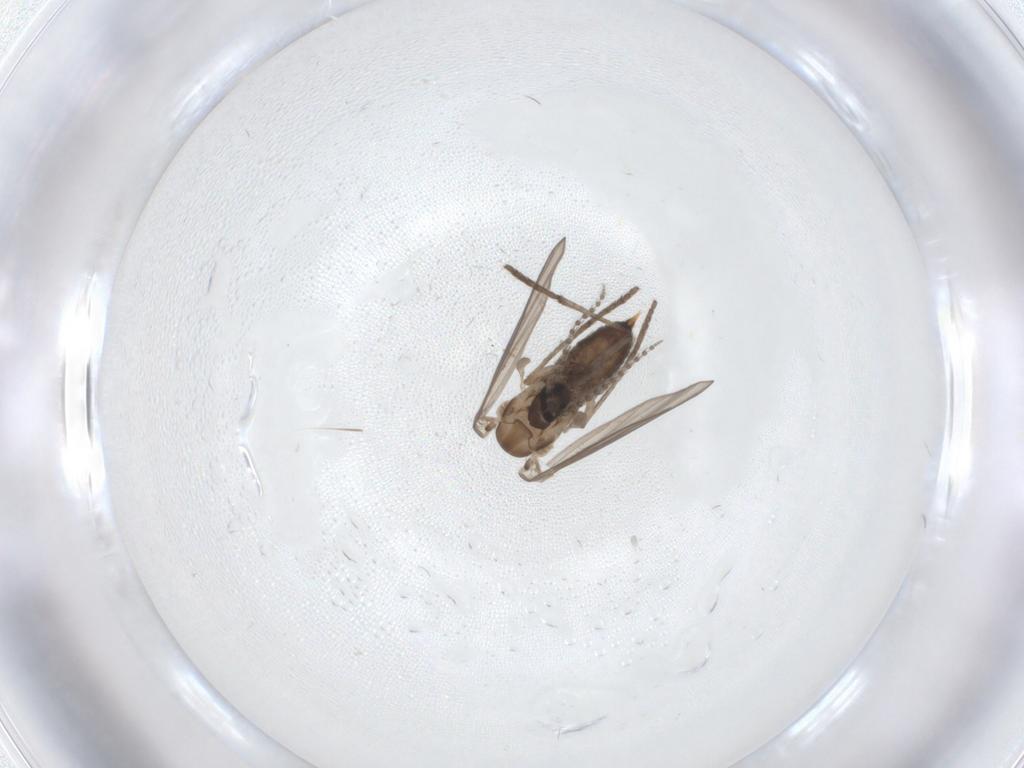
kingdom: Animalia
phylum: Arthropoda
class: Insecta
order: Diptera
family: Psychodidae
